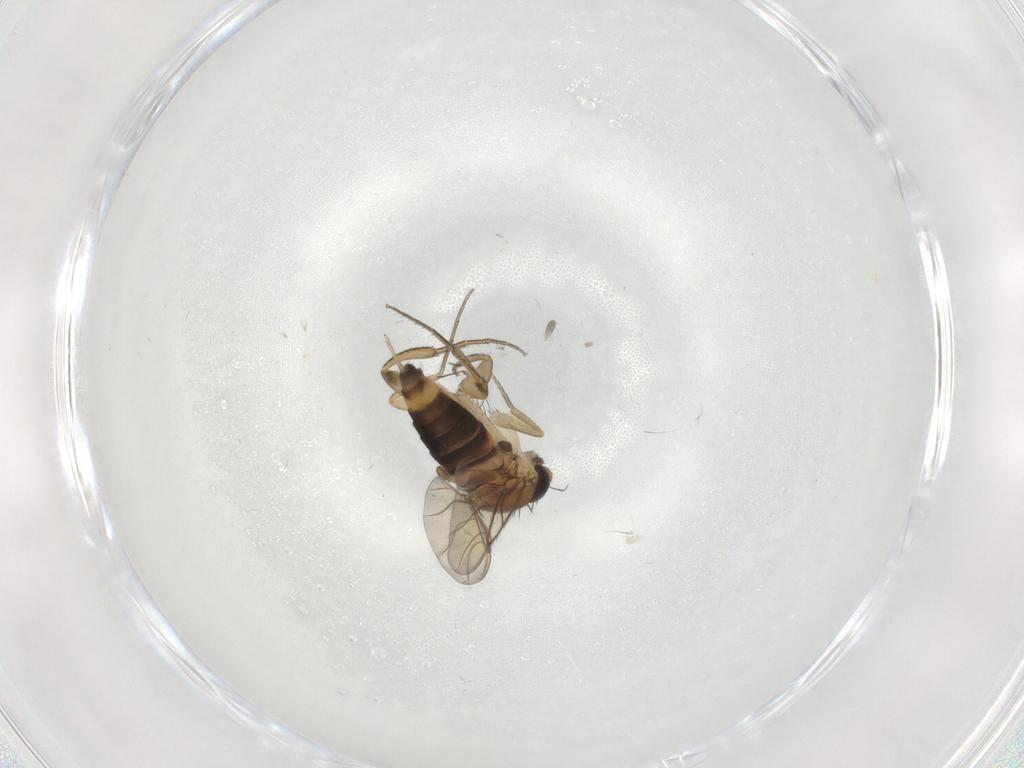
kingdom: Animalia
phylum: Arthropoda
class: Insecta
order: Diptera
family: Phoridae
